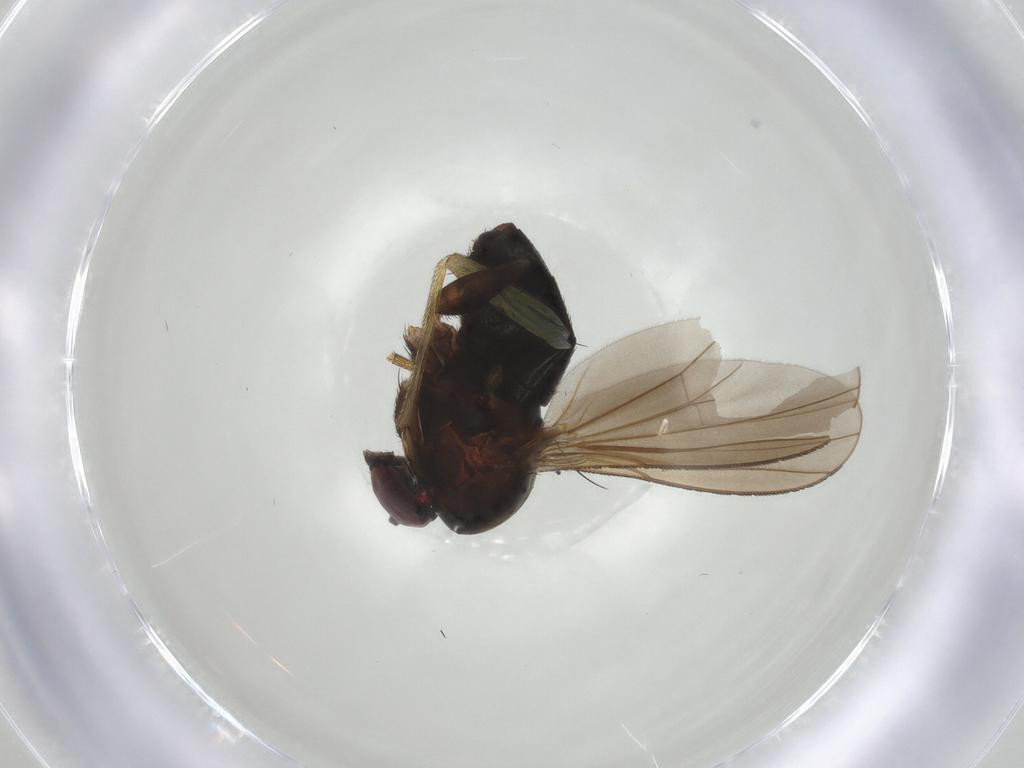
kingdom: Animalia
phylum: Arthropoda
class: Insecta
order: Diptera
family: Dolichopodidae
